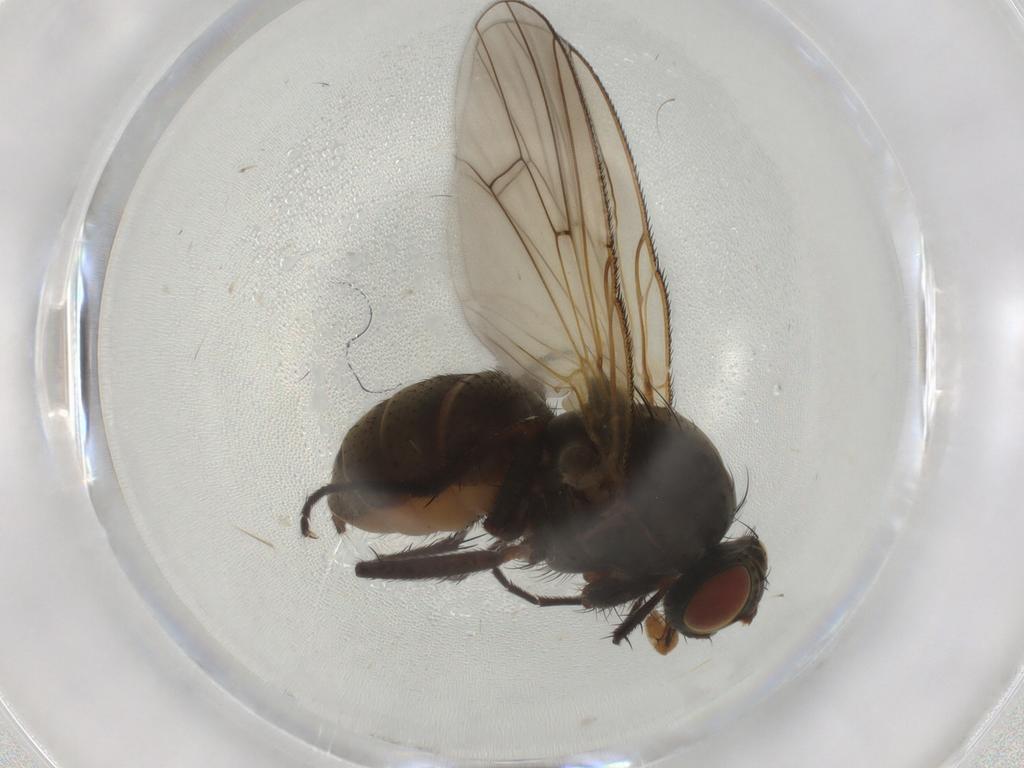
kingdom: Animalia
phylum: Arthropoda
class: Insecta
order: Diptera
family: Anthomyiidae
